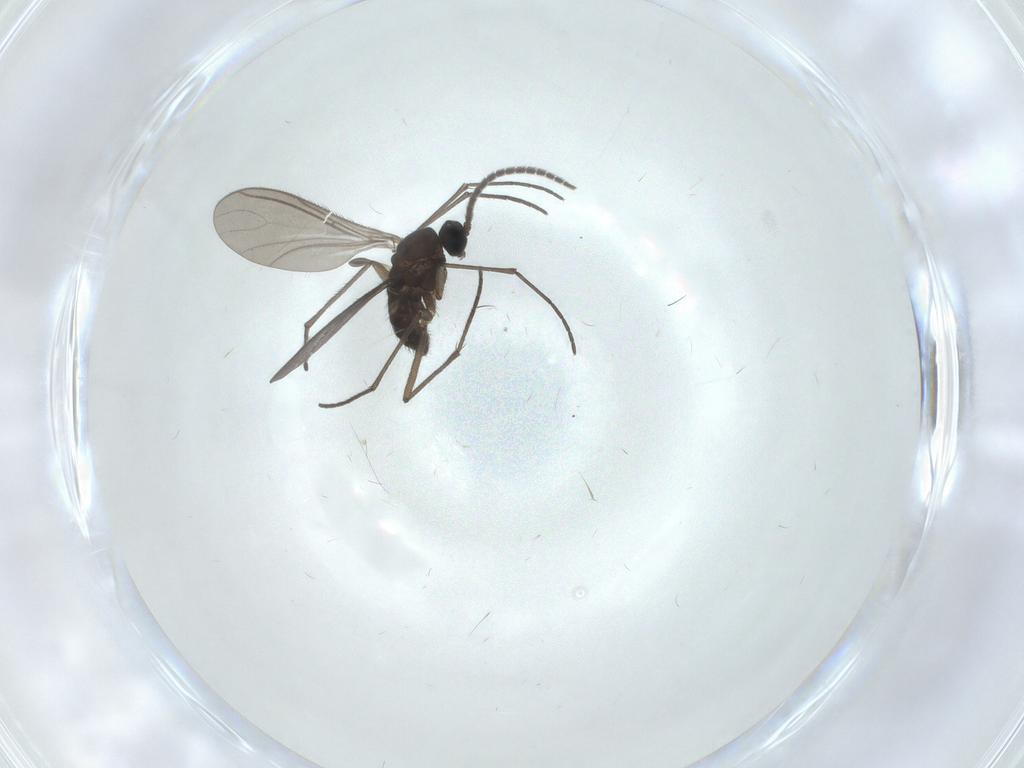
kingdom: Animalia
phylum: Arthropoda
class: Insecta
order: Diptera
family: Sciaridae
